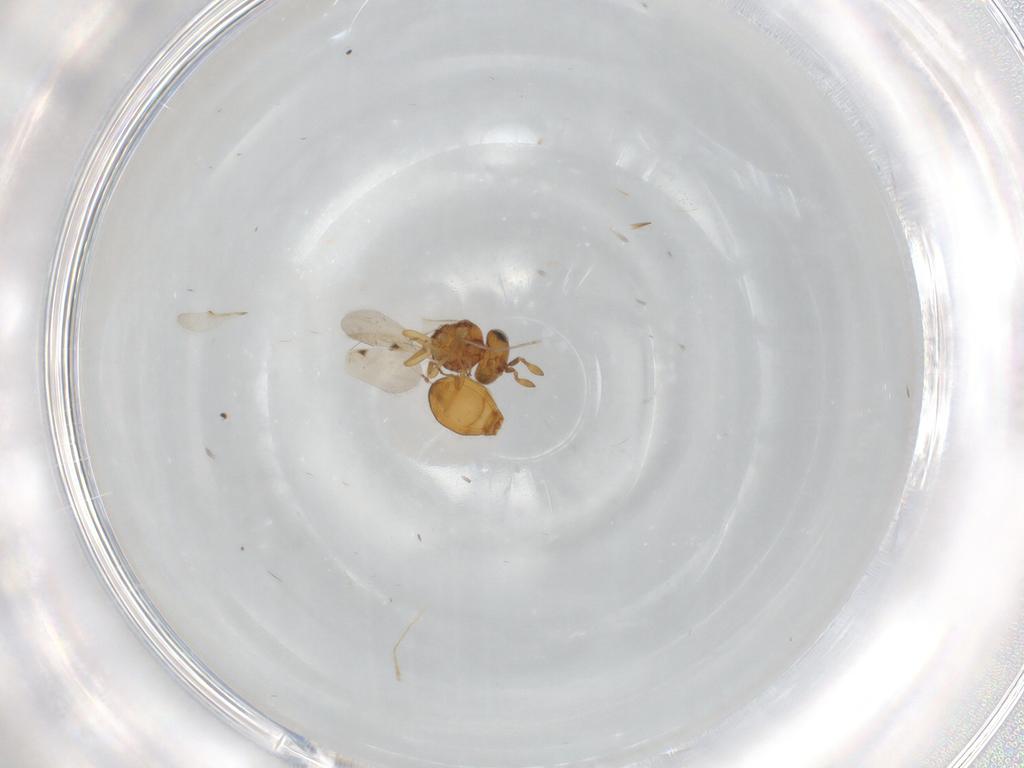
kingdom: Animalia
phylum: Arthropoda
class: Insecta
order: Hymenoptera
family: Scelionidae
